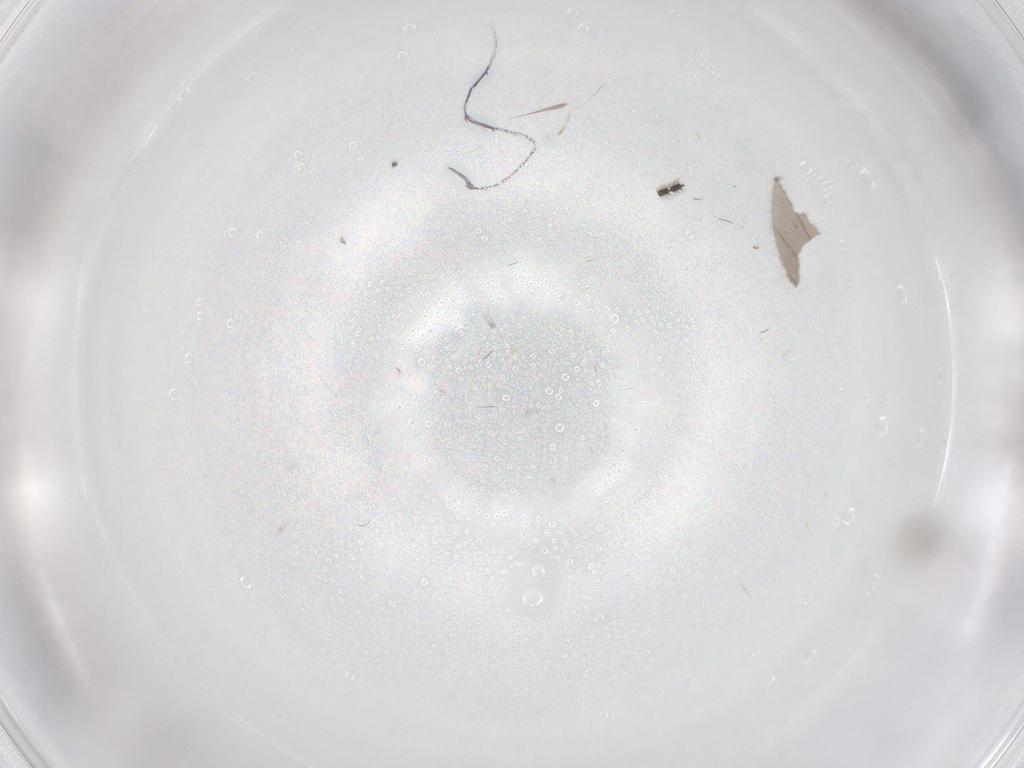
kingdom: Animalia
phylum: Arthropoda
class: Insecta
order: Diptera
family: Sciaridae
